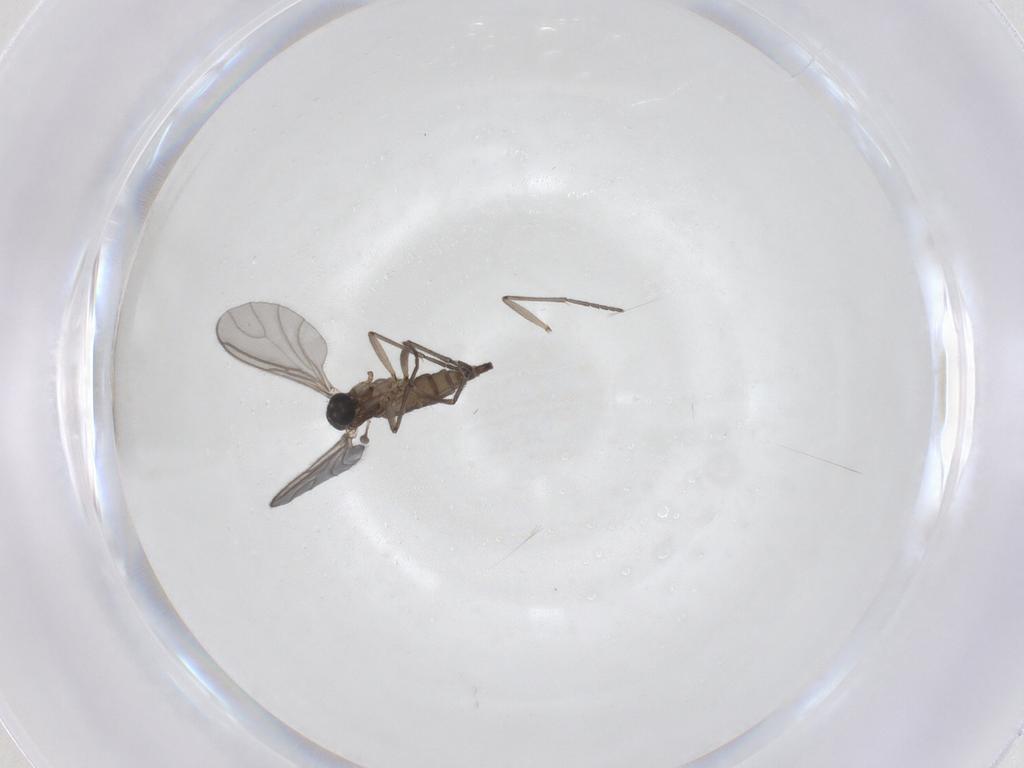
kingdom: Animalia
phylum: Arthropoda
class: Insecta
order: Diptera
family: Sciaridae
